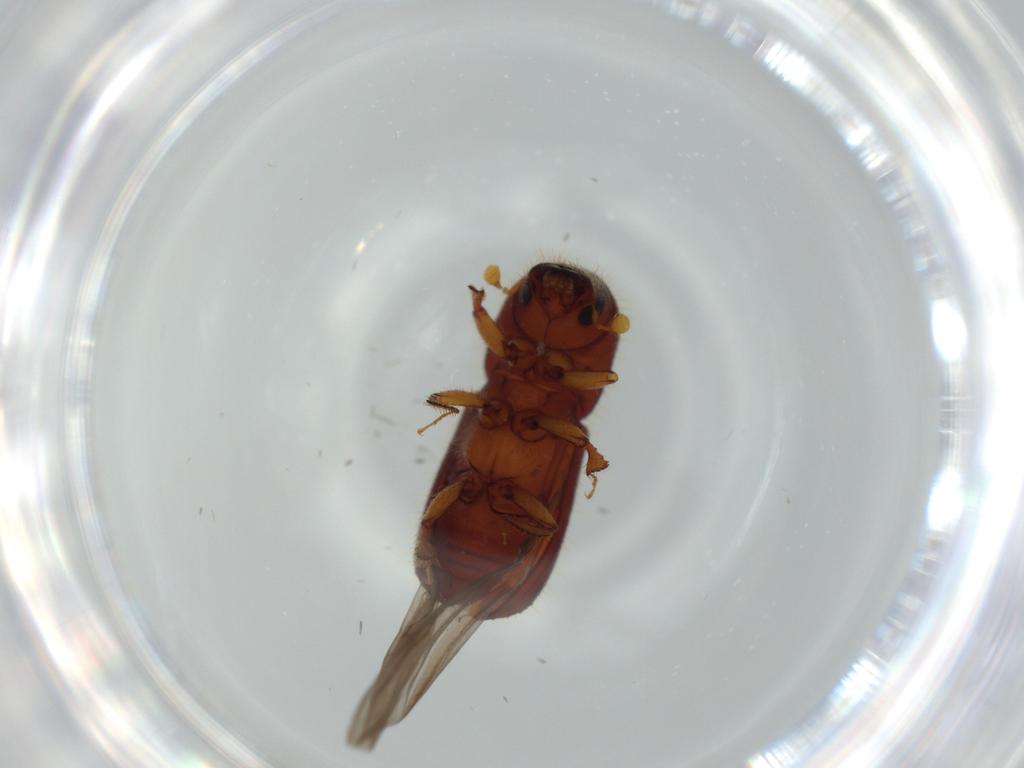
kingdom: Animalia
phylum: Arthropoda
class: Insecta
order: Coleoptera
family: Curculionidae
